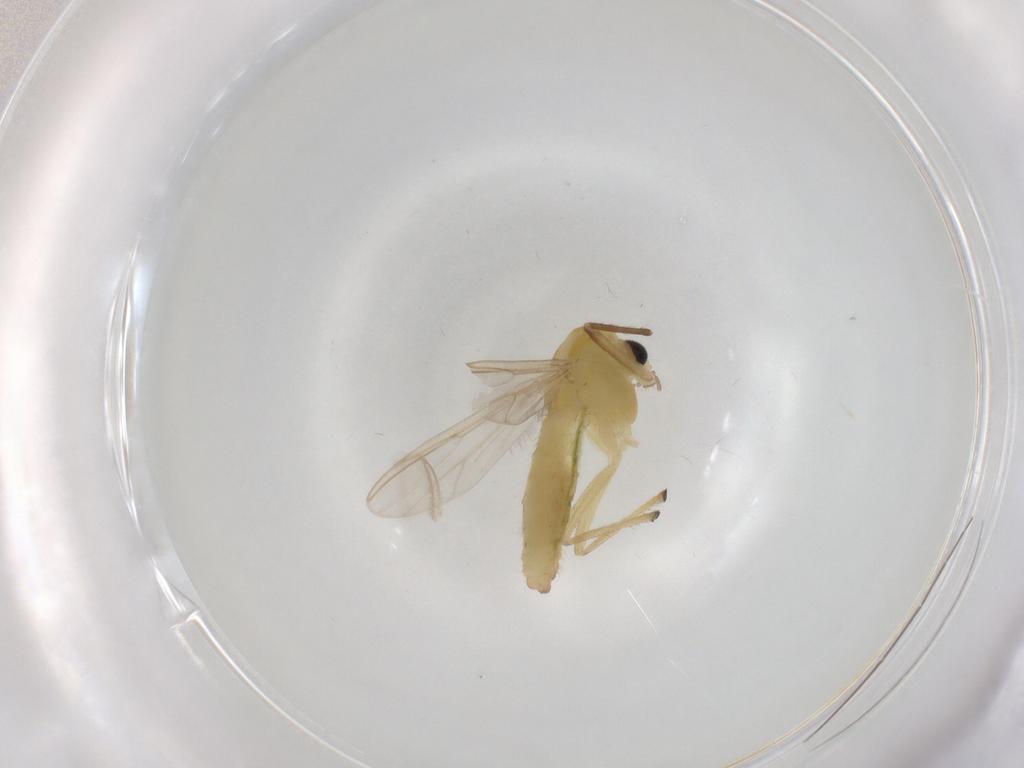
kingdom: Animalia
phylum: Arthropoda
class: Insecta
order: Diptera
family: Chironomidae
